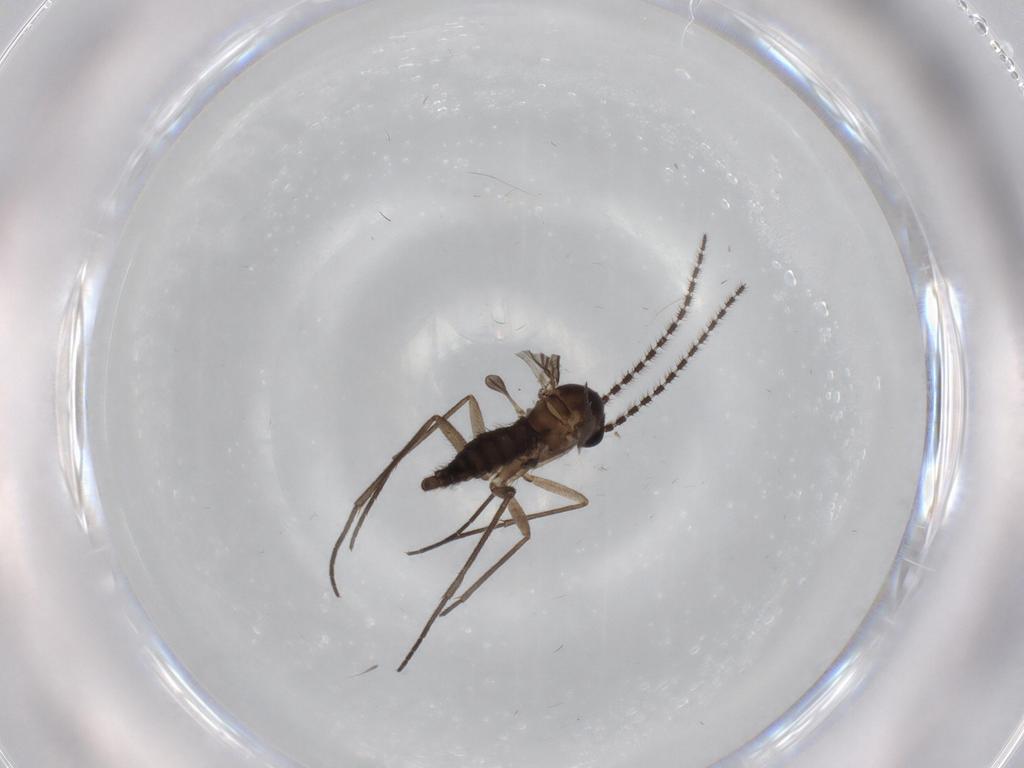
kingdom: Animalia
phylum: Arthropoda
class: Insecta
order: Diptera
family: Sciaridae
